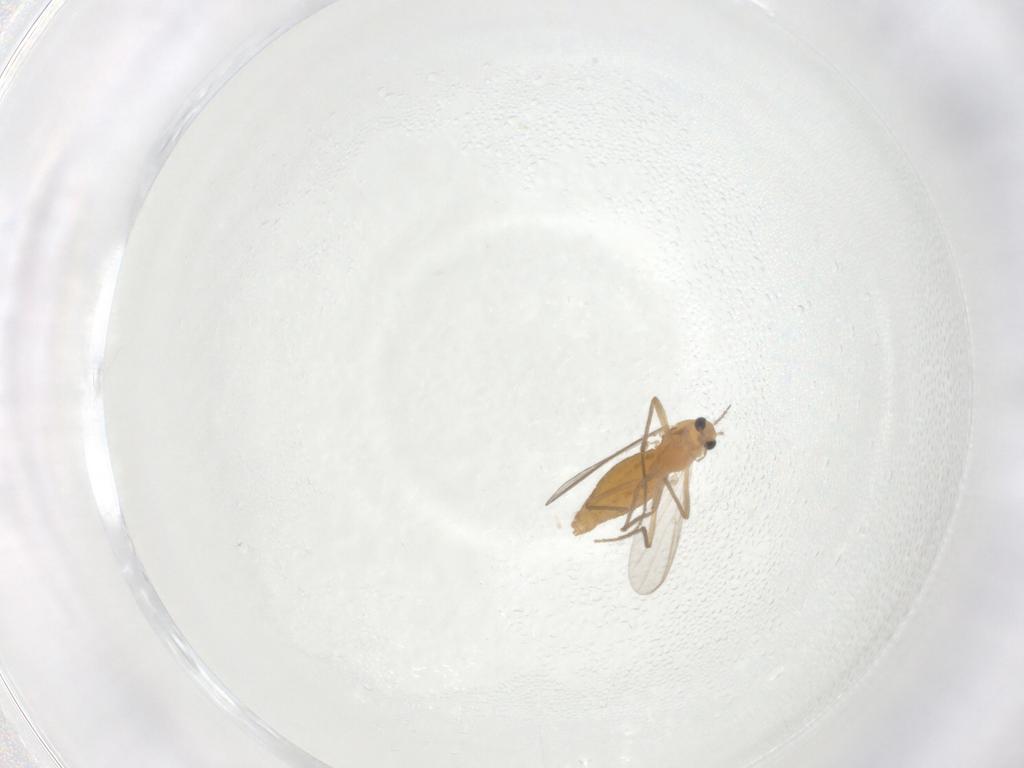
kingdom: Animalia
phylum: Arthropoda
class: Insecta
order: Diptera
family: Chironomidae
